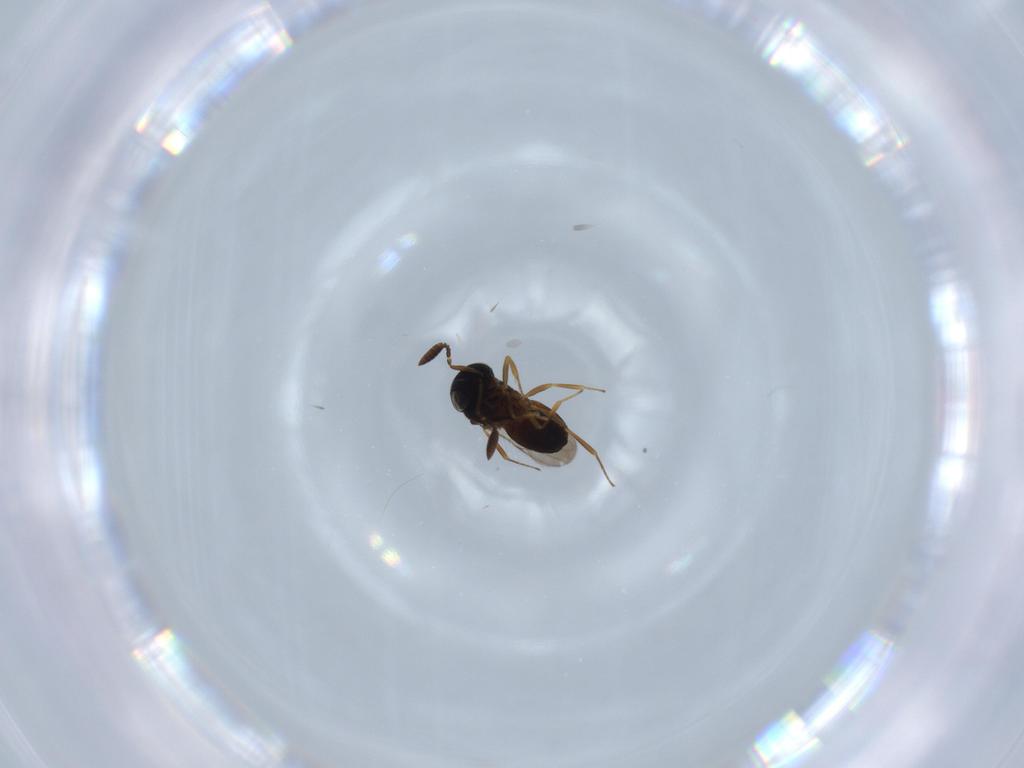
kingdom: Animalia
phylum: Arthropoda
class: Insecta
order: Coleoptera
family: Curculionidae
